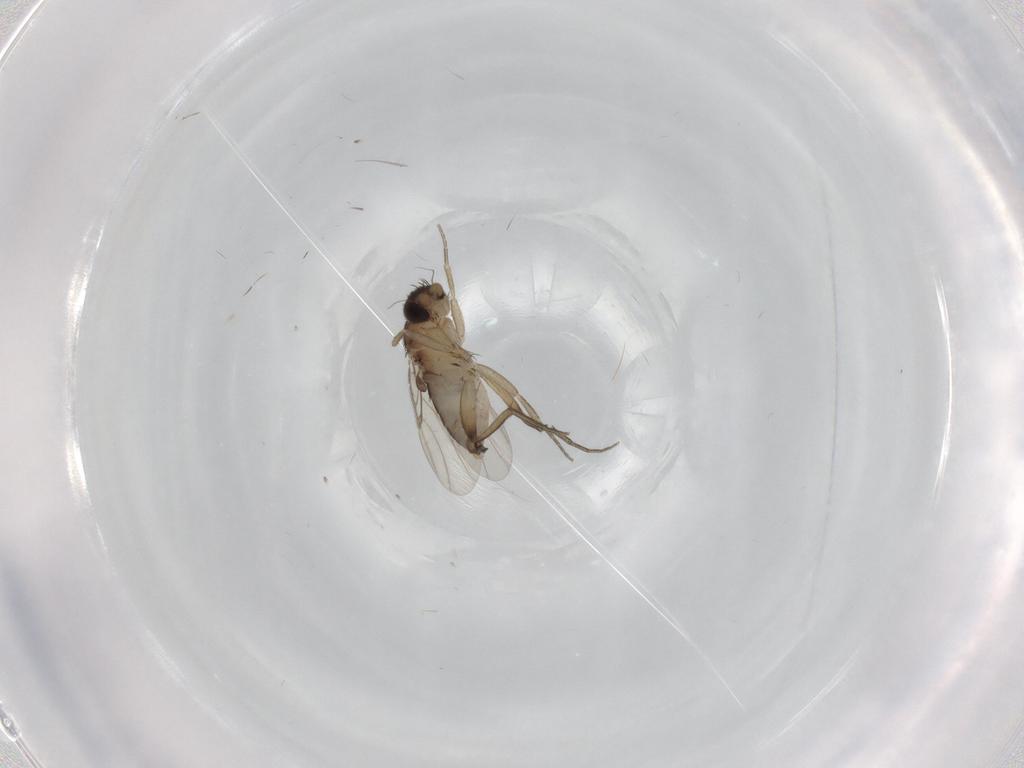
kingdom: Animalia
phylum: Arthropoda
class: Insecta
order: Diptera
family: Phoridae
